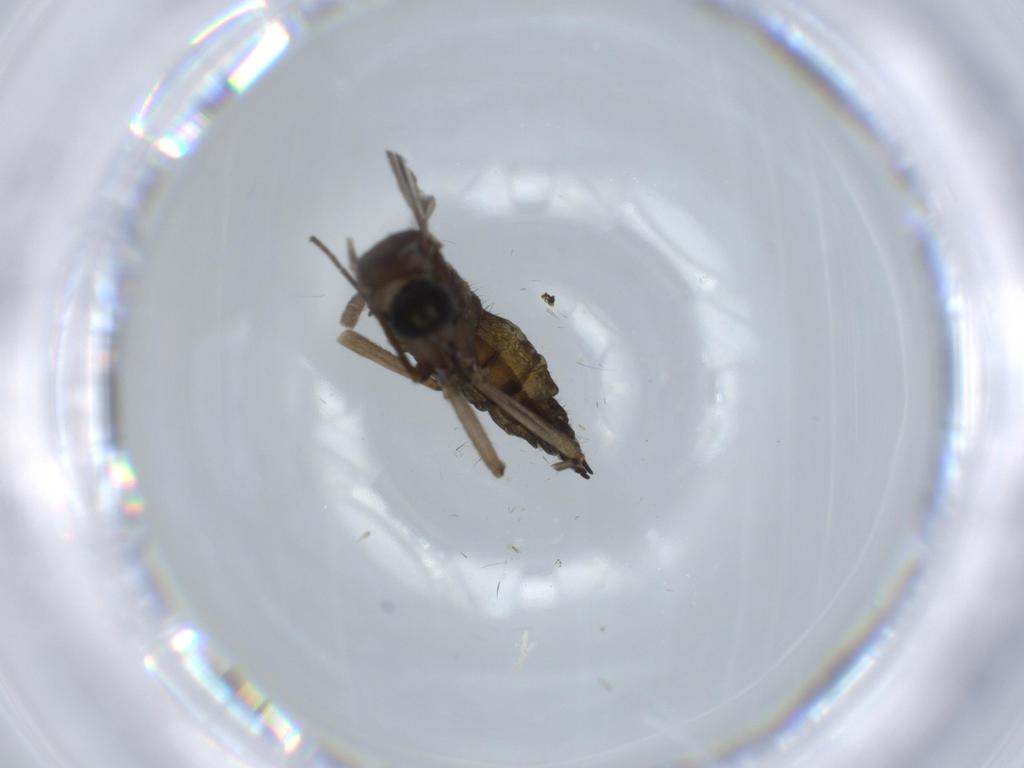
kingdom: Animalia
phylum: Arthropoda
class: Insecta
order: Diptera
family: Sciaridae
